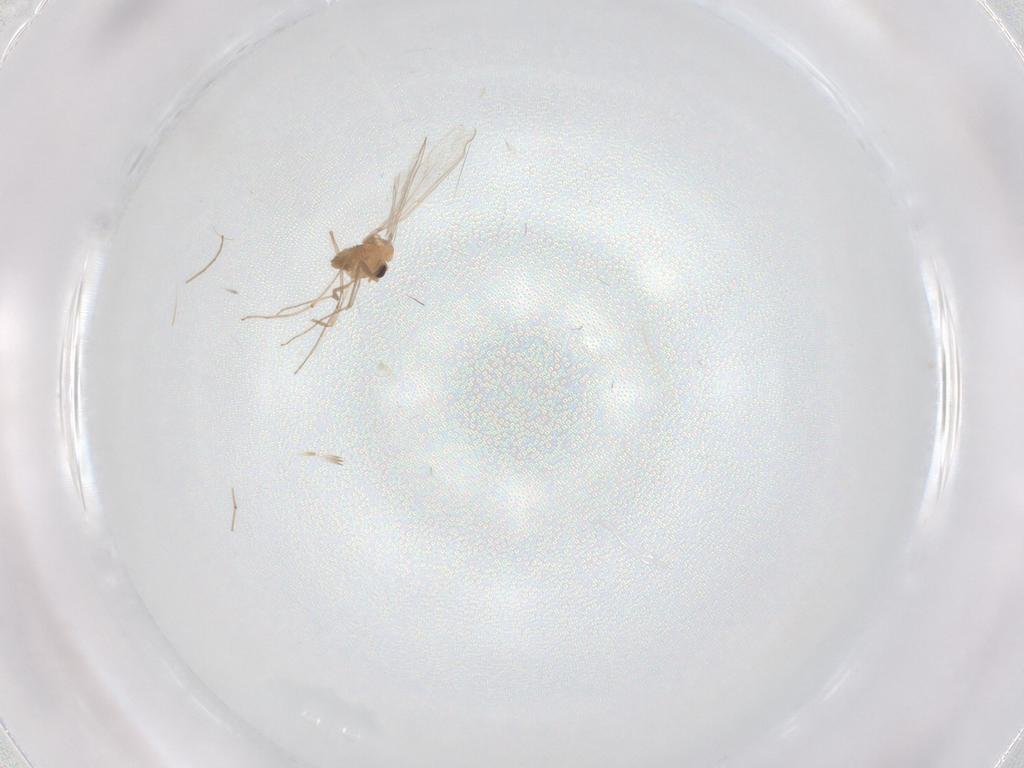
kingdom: Animalia
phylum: Arthropoda
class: Insecta
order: Diptera
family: Chironomidae
